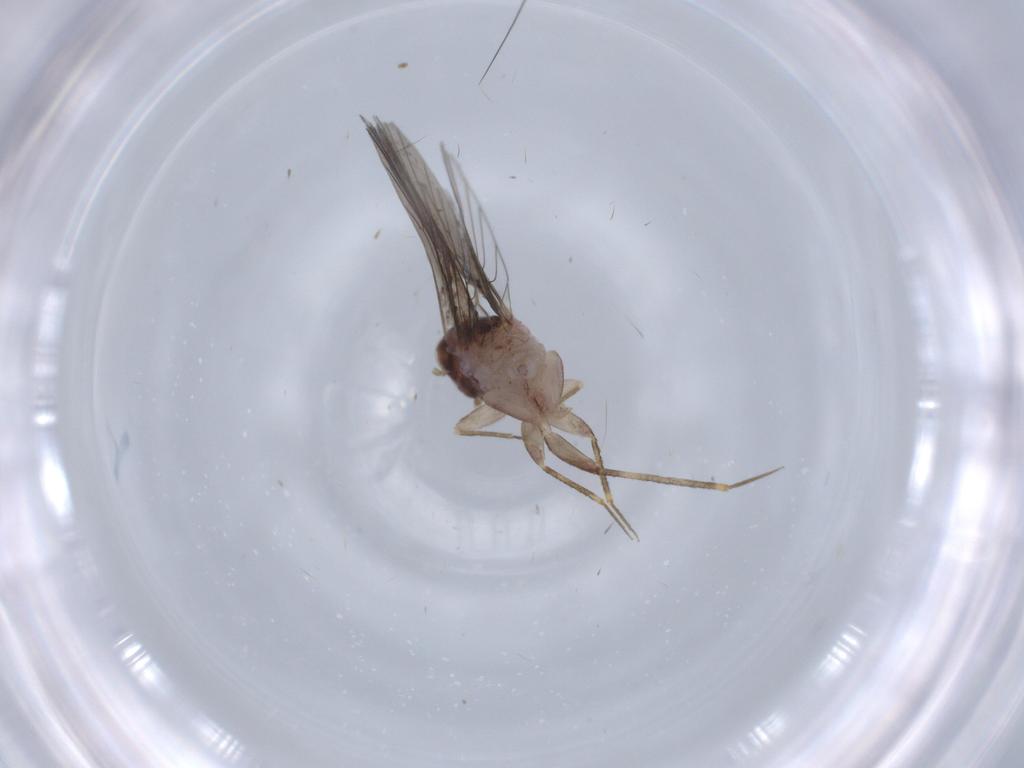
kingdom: Animalia
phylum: Arthropoda
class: Insecta
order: Psocodea
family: Lepidopsocidae
